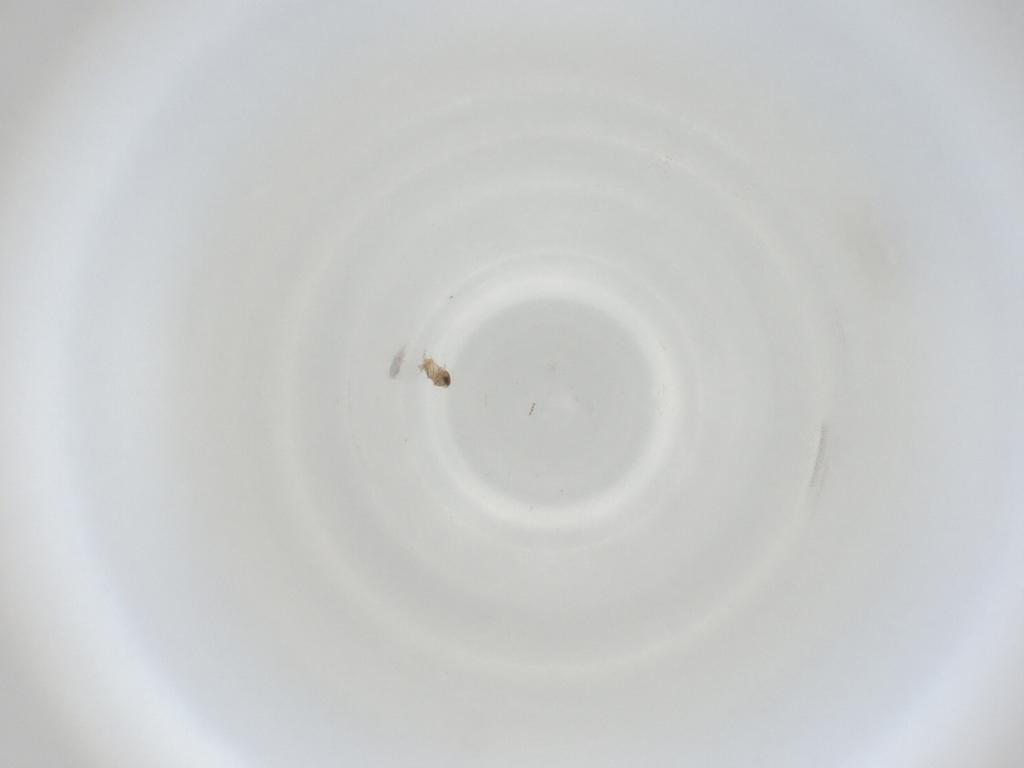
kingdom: Animalia
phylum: Arthropoda
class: Insecta
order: Diptera
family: Cecidomyiidae
